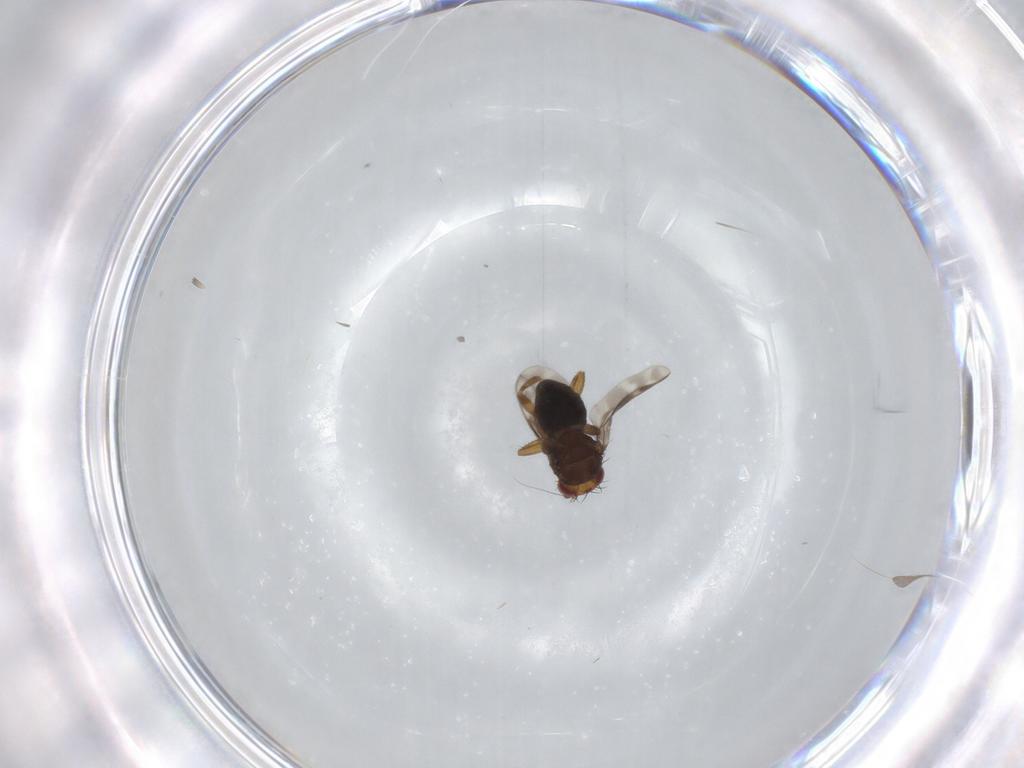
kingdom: Animalia
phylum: Arthropoda
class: Insecta
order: Diptera
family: Sphaeroceridae
